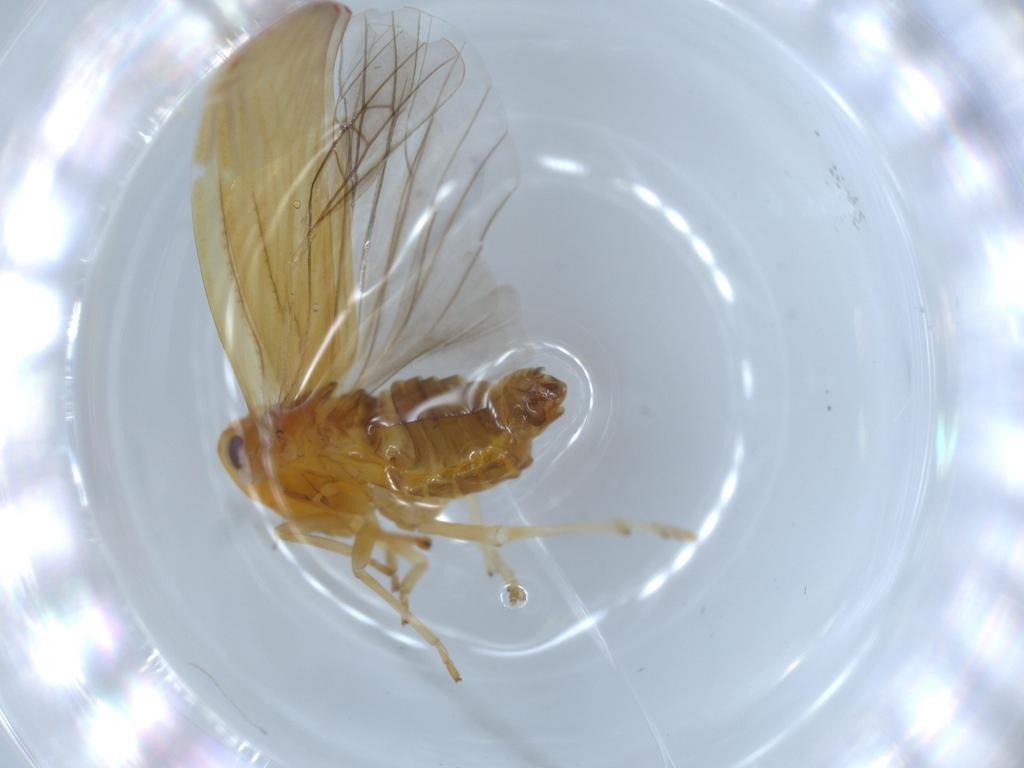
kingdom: Animalia
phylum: Arthropoda
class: Insecta
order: Hemiptera
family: Derbidae
